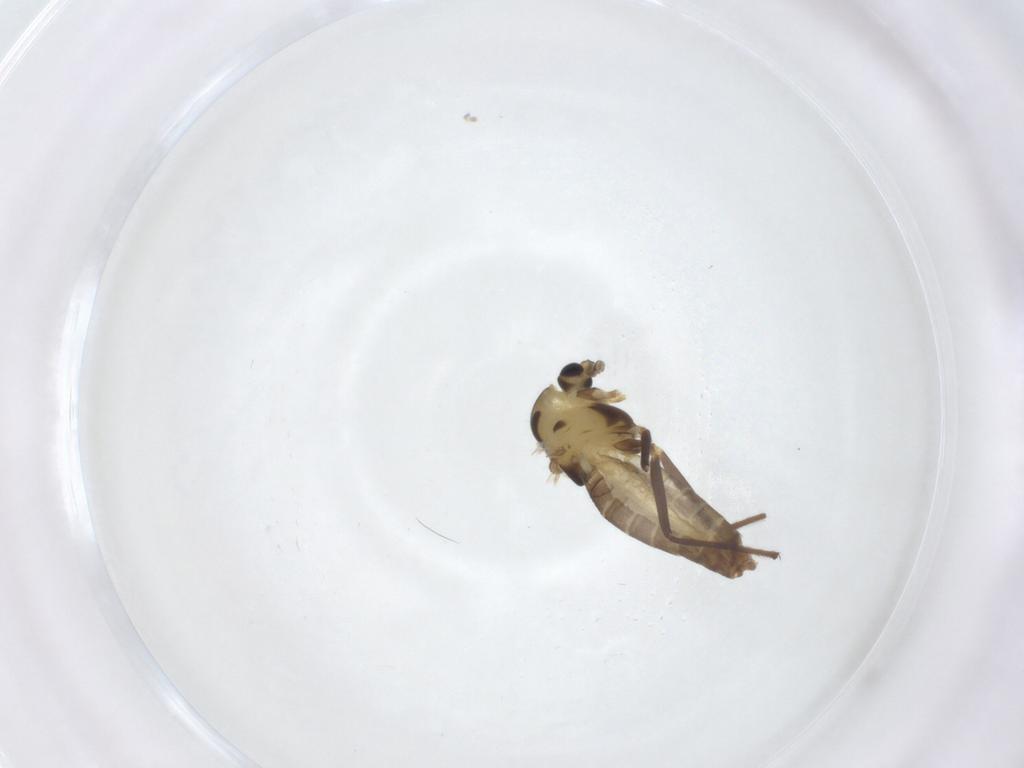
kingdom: Animalia
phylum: Arthropoda
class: Insecta
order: Diptera
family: Chironomidae
